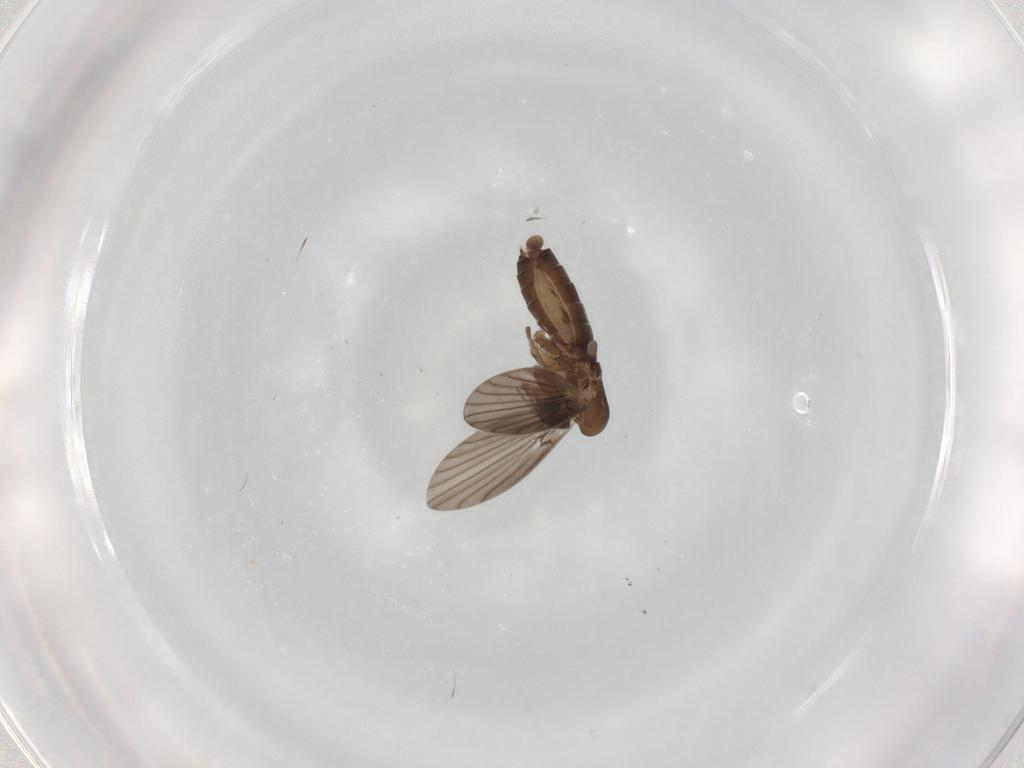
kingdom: Animalia
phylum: Arthropoda
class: Insecta
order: Diptera
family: Psychodidae
